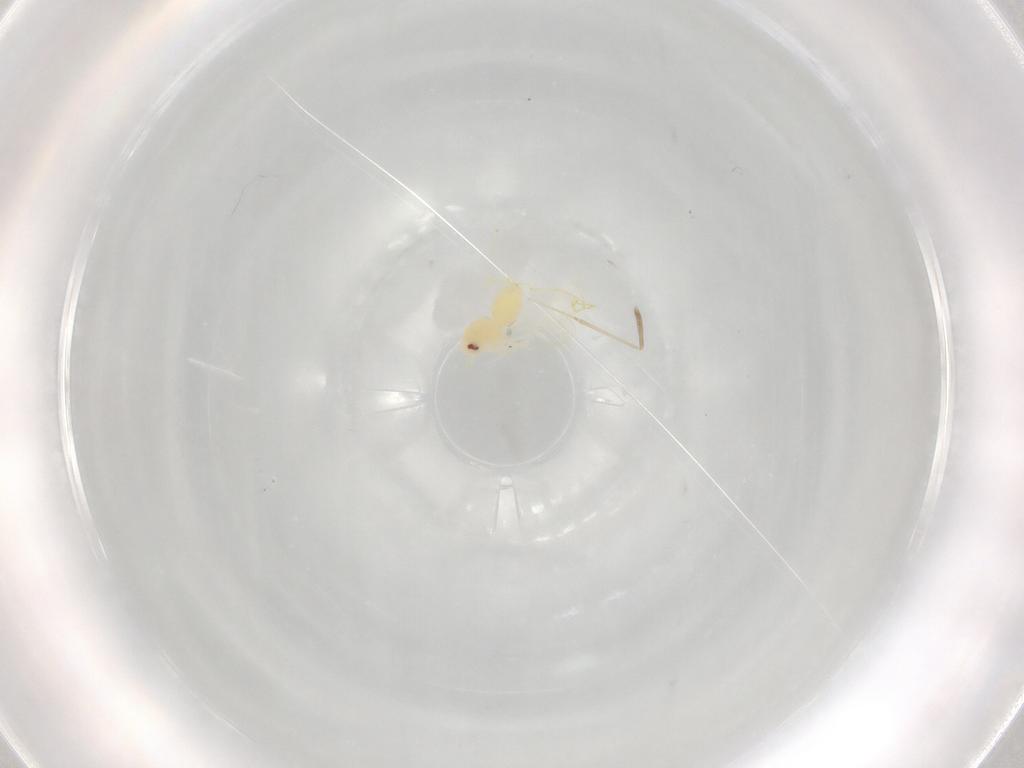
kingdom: Animalia
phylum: Arthropoda
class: Insecta
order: Hemiptera
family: Aleyrodidae
